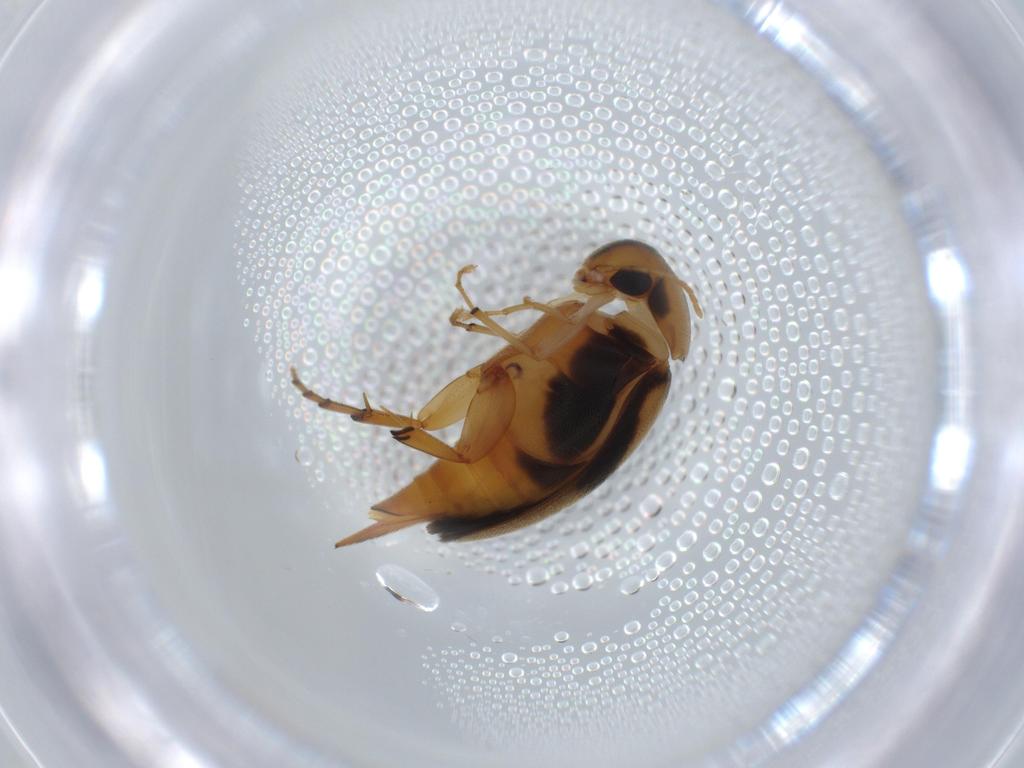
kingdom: Animalia
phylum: Arthropoda
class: Insecta
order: Coleoptera
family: Mordellidae
